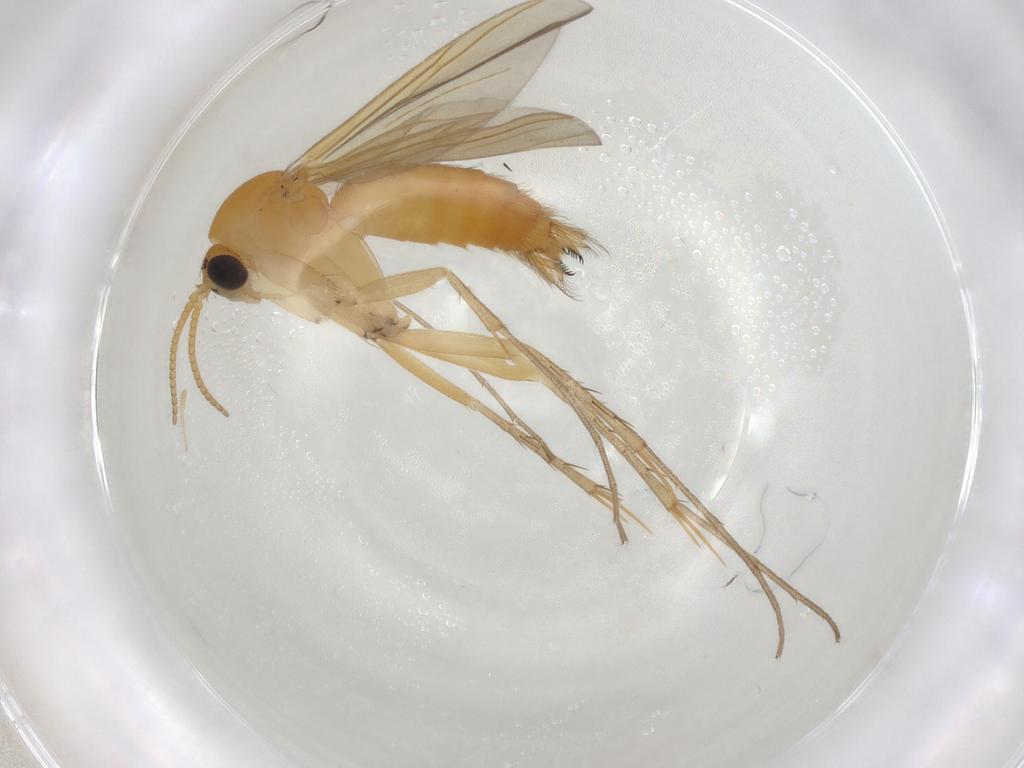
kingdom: Animalia
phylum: Arthropoda
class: Insecta
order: Diptera
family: Mycetophilidae
